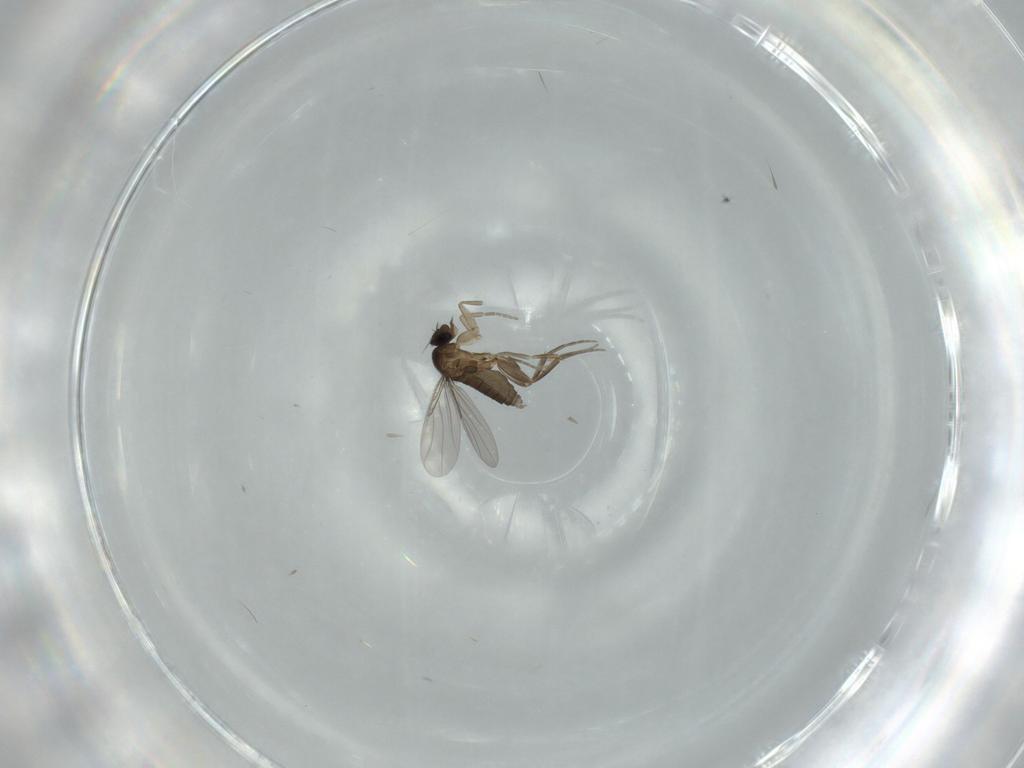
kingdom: Animalia
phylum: Arthropoda
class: Insecta
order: Diptera
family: Phoridae
